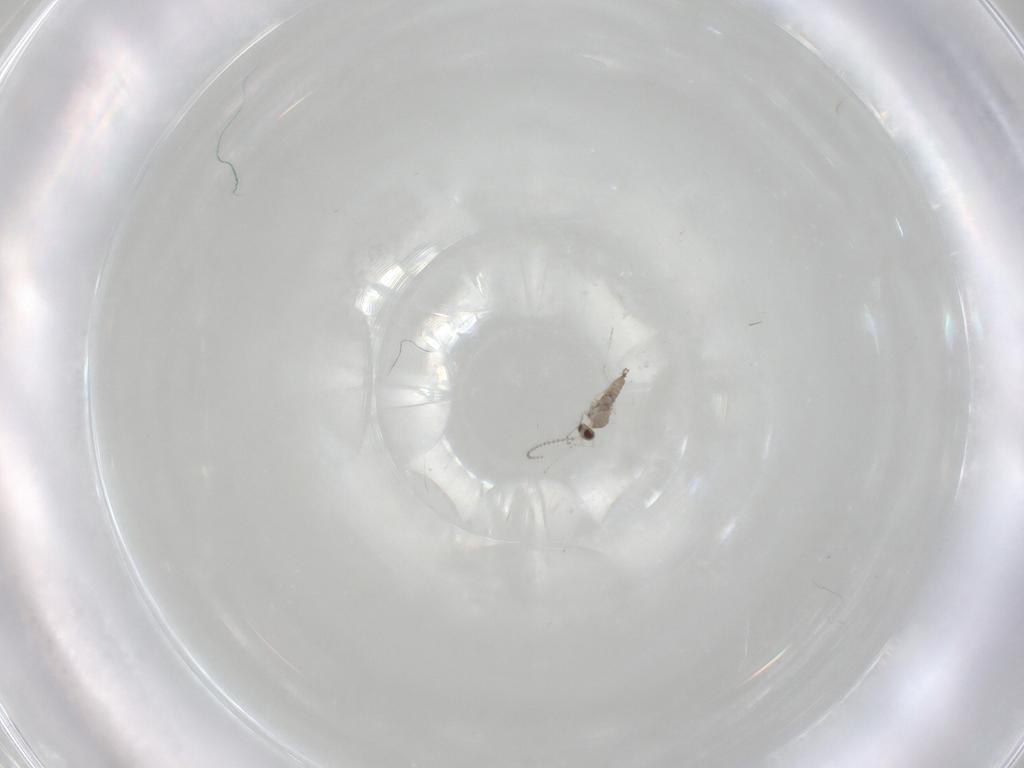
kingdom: Animalia
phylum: Arthropoda
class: Insecta
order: Diptera
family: Cecidomyiidae
